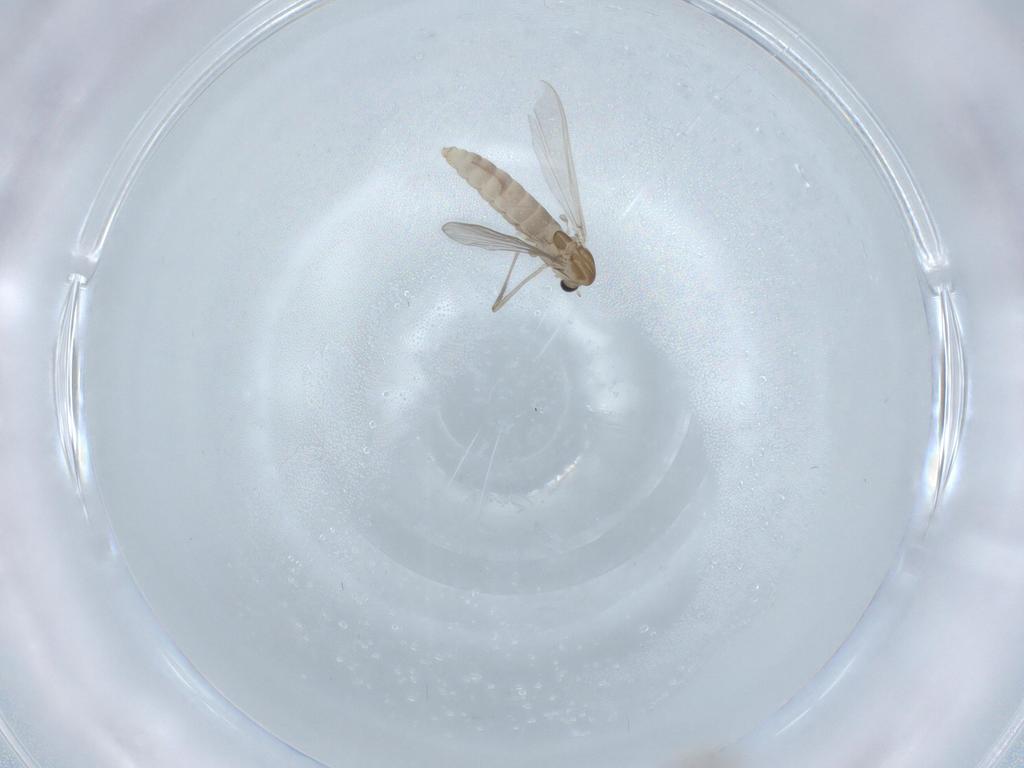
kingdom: Animalia
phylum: Arthropoda
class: Insecta
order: Diptera
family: Chironomidae
